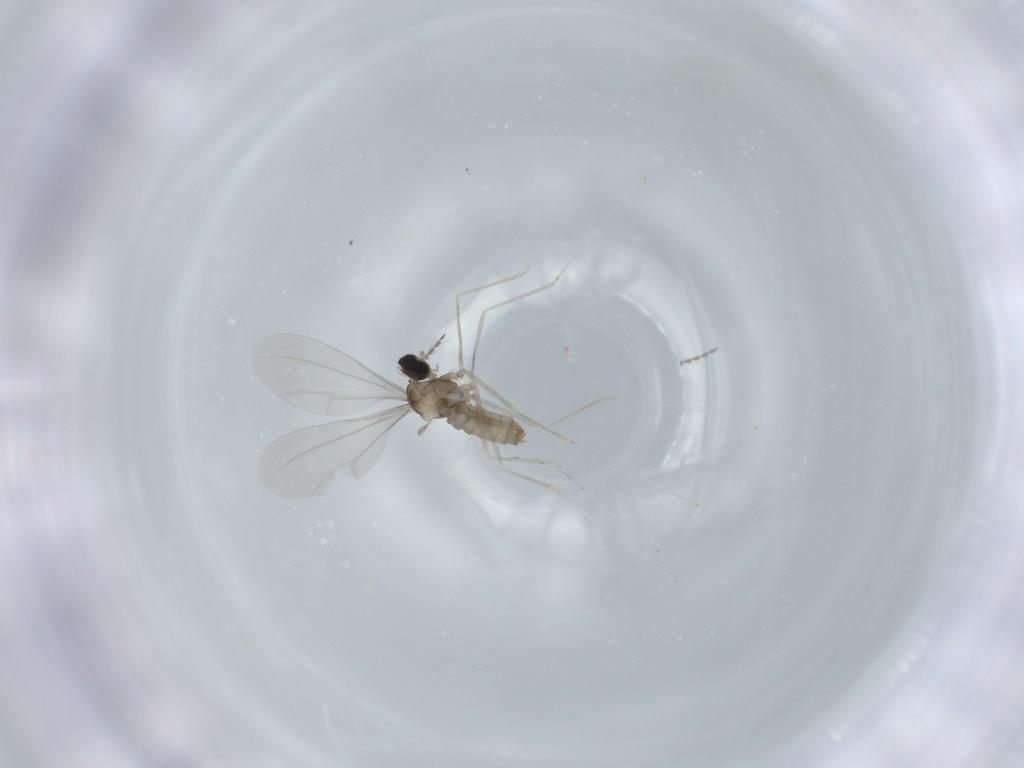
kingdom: Animalia
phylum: Arthropoda
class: Insecta
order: Diptera
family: Cecidomyiidae
